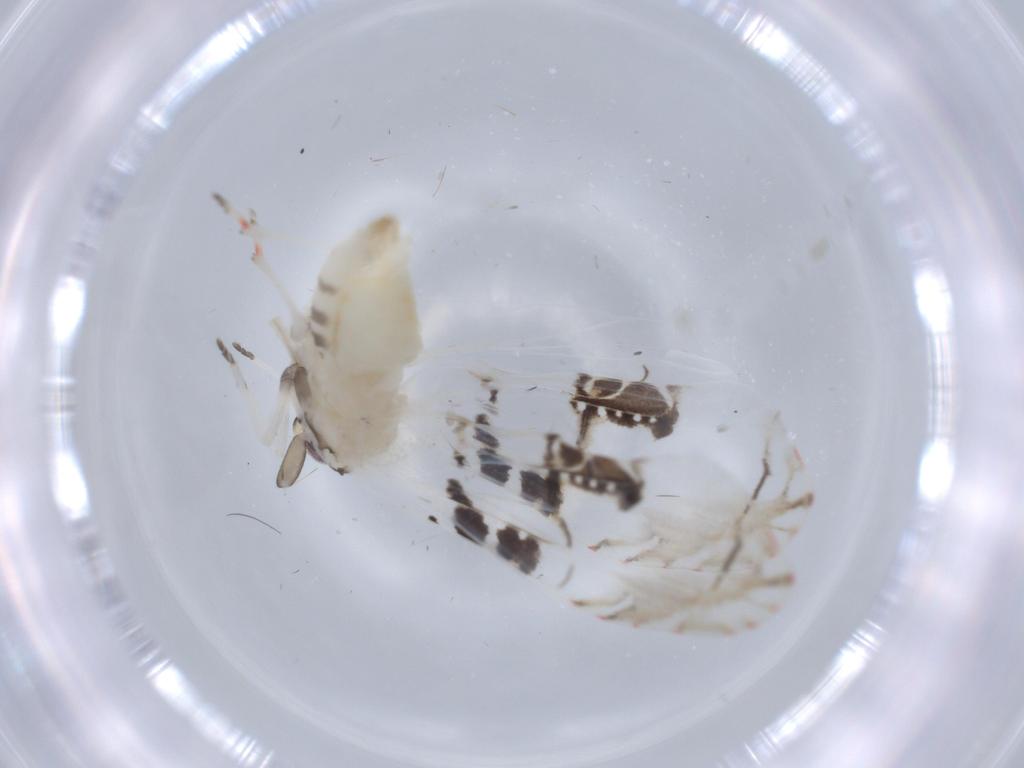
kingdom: Animalia
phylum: Arthropoda
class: Insecta
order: Hemiptera
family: Derbidae
